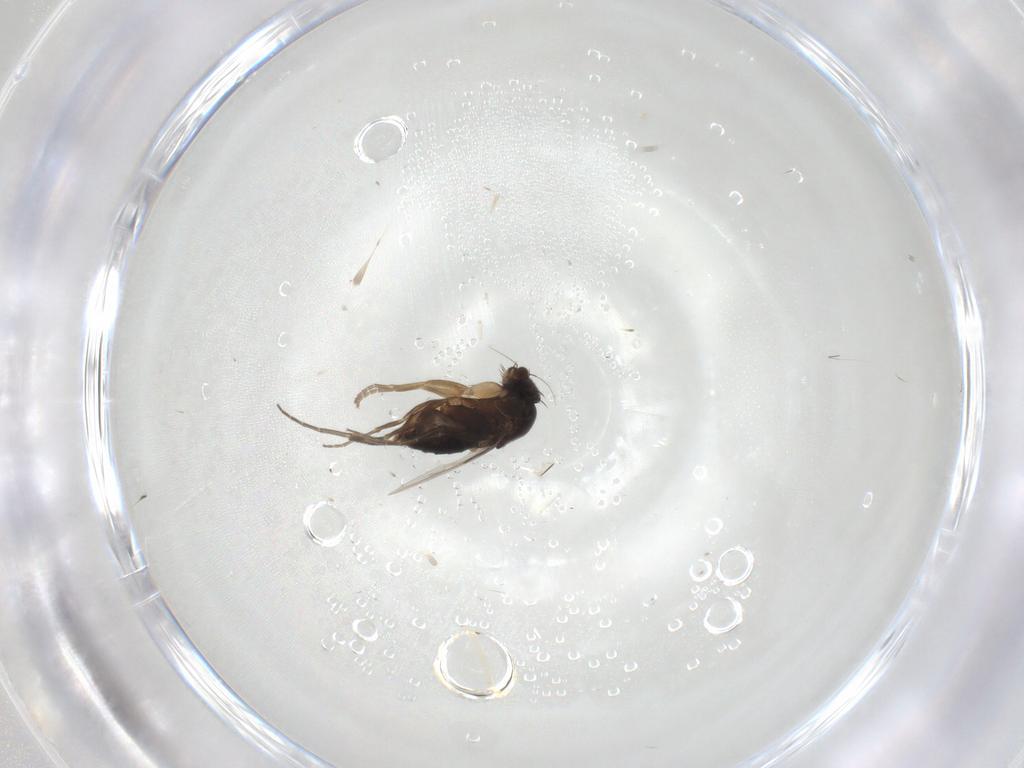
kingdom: Animalia
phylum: Arthropoda
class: Insecta
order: Diptera
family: Phoridae
